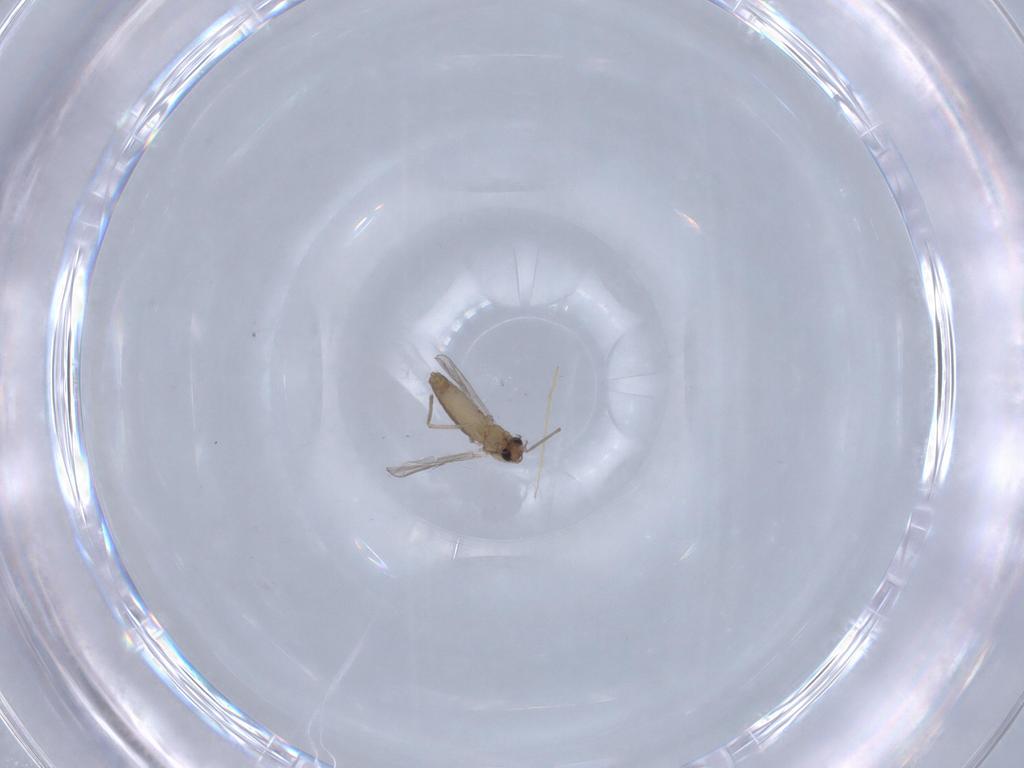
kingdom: Animalia
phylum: Arthropoda
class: Insecta
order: Diptera
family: Chironomidae
